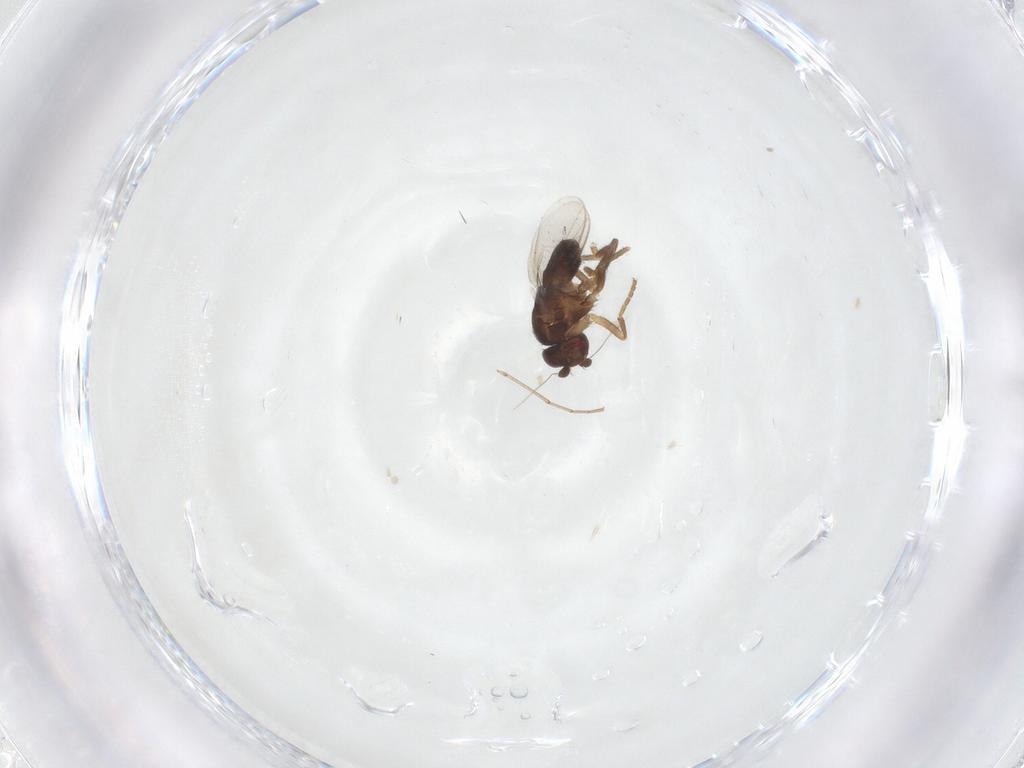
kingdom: Animalia
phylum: Arthropoda
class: Insecta
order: Diptera
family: Sphaeroceridae
